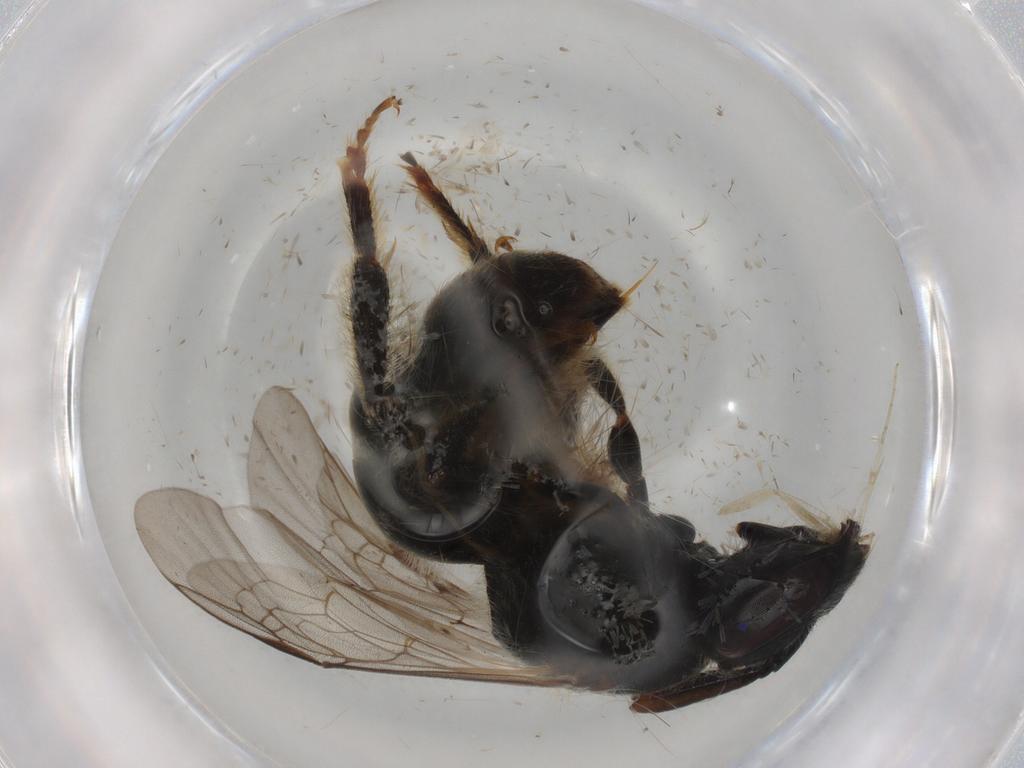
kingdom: Animalia
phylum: Arthropoda
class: Insecta
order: Hymenoptera
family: Halictidae
